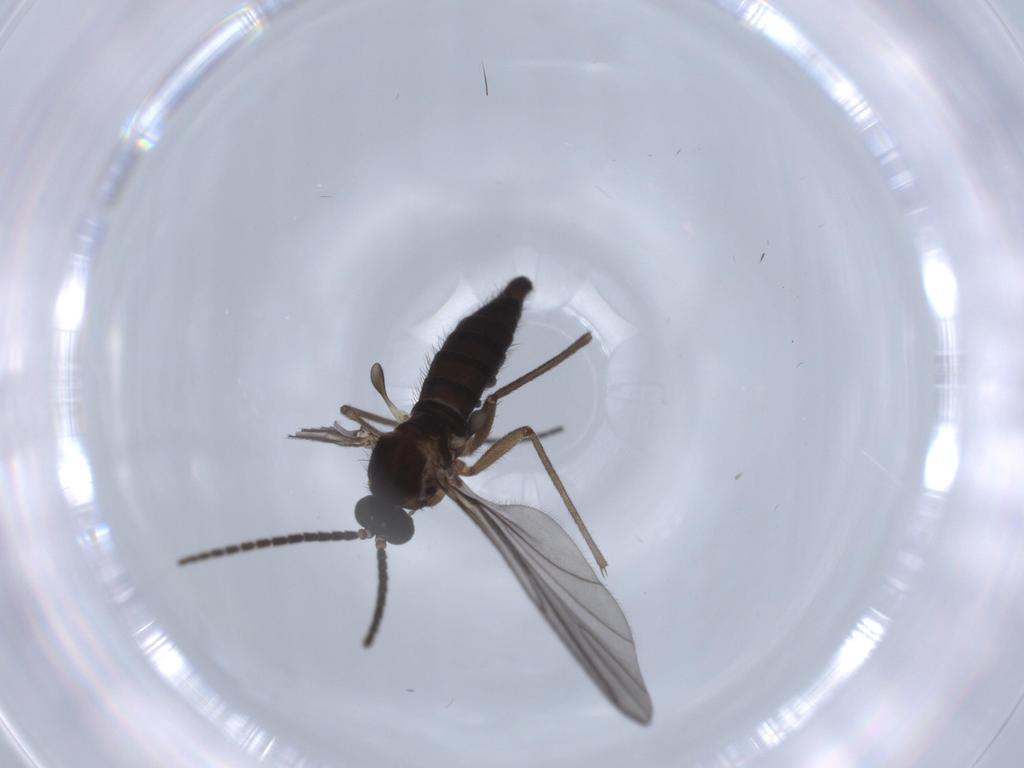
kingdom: Animalia
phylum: Arthropoda
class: Insecta
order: Diptera
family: Sciaridae
